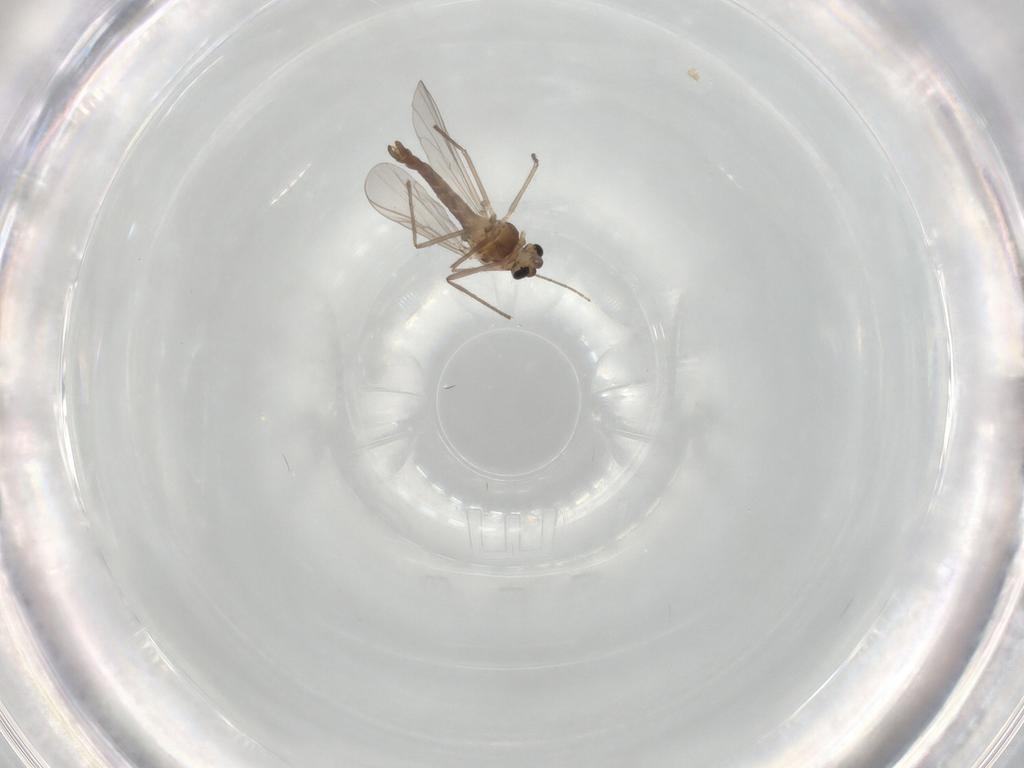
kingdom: Animalia
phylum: Arthropoda
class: Insecta
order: Diptera
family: Chironomidae
